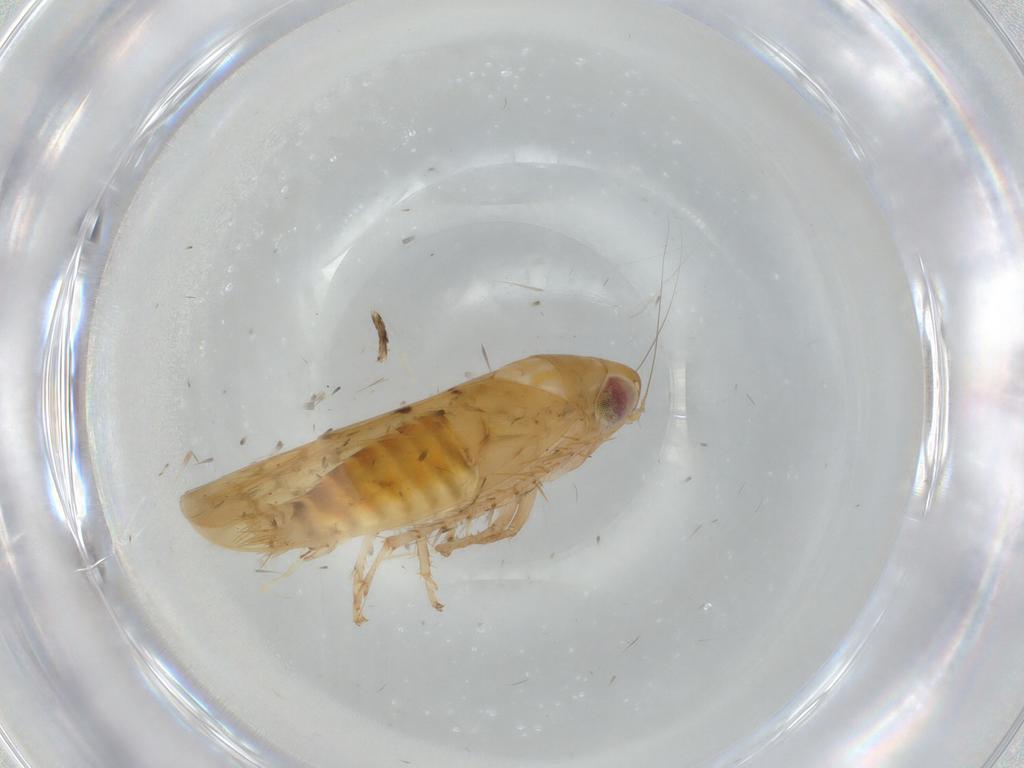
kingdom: Animalia
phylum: Arthropoda
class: Insecta
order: Hemiptera
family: Cicadellidae
